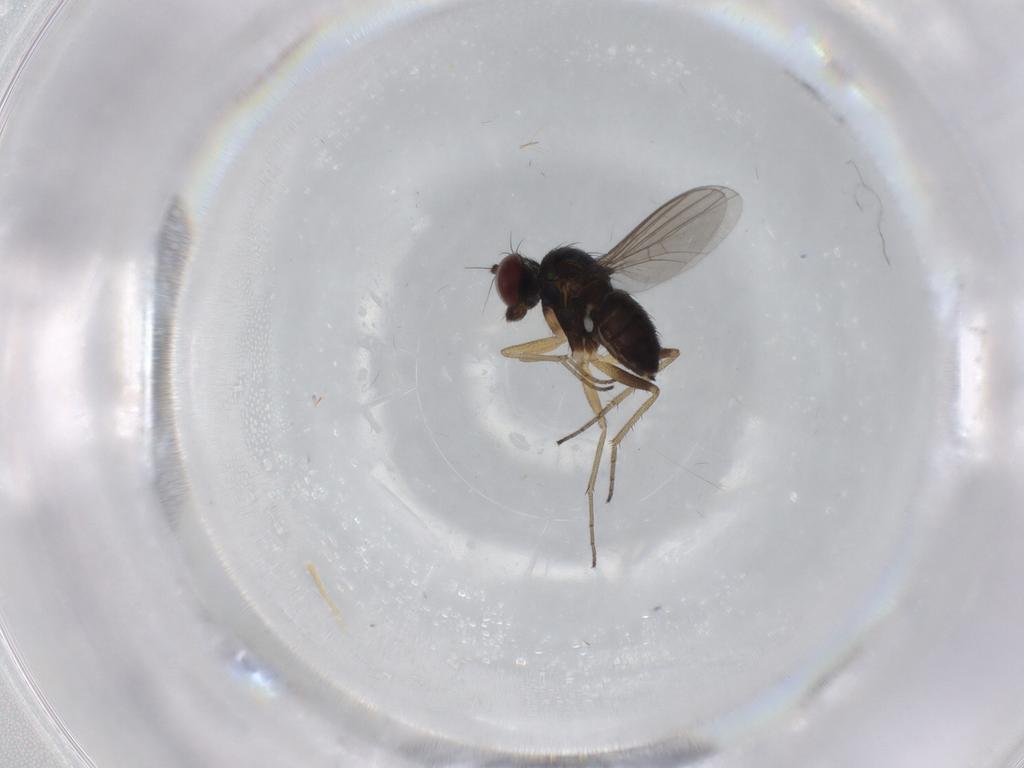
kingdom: Animalia
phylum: Arthropoda
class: Insecta
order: Diptera
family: Dolichopodidae
